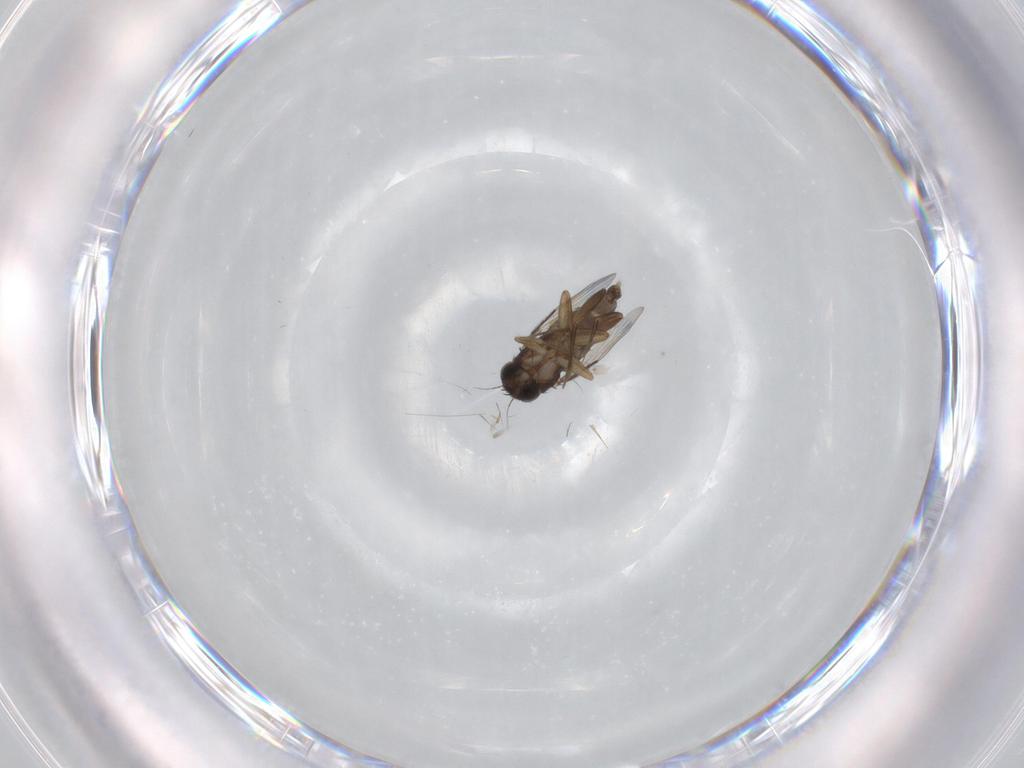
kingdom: Animalia
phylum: Arthropoda
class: Insecta
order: Diptera
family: Phoridae
